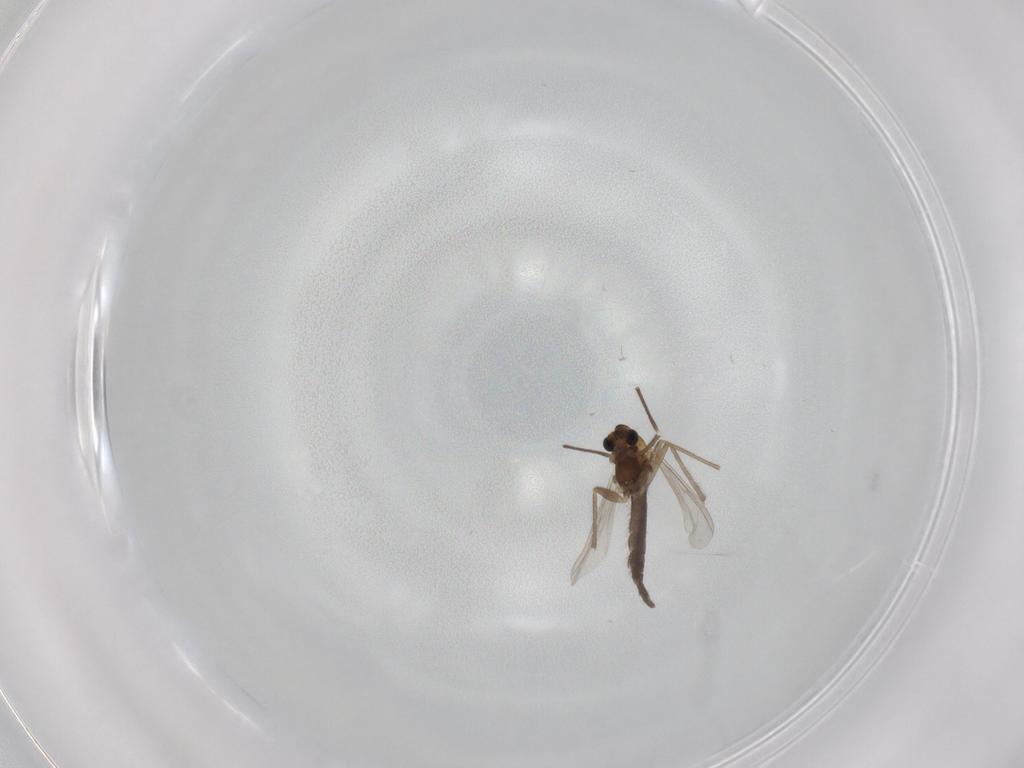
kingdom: Animalia
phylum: Arthropoda
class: Insecta
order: Diptera
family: Chironomidae
